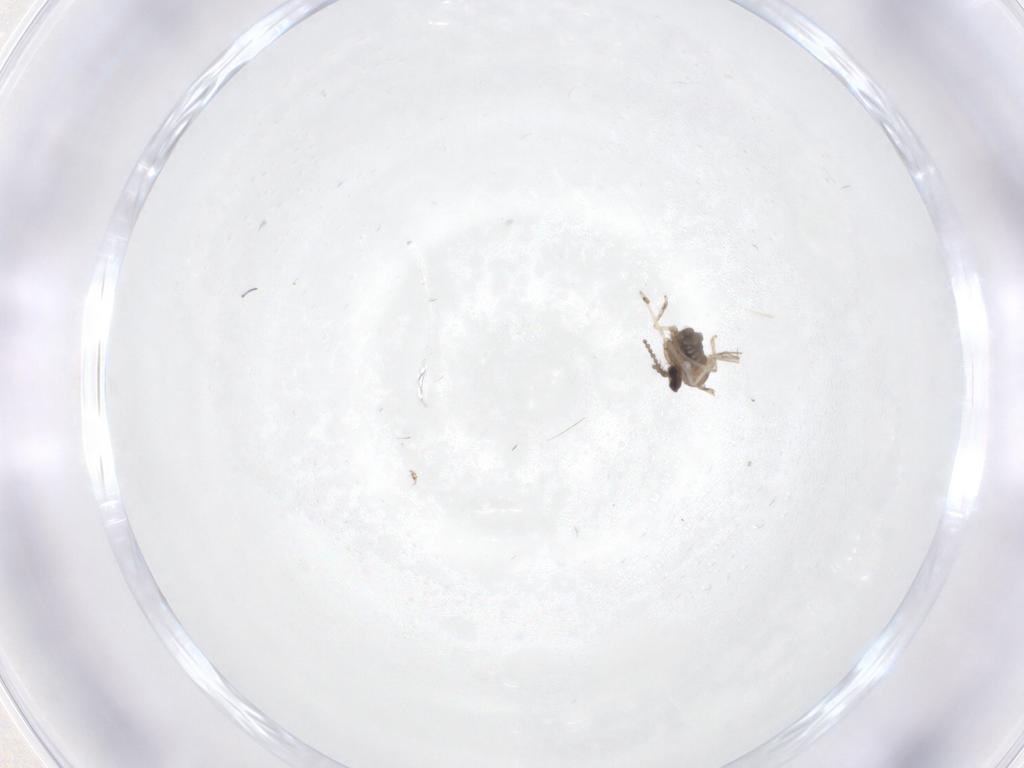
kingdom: Animalia
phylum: Arthropoda
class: Insecta
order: Diptera
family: Cecidomyiidae
